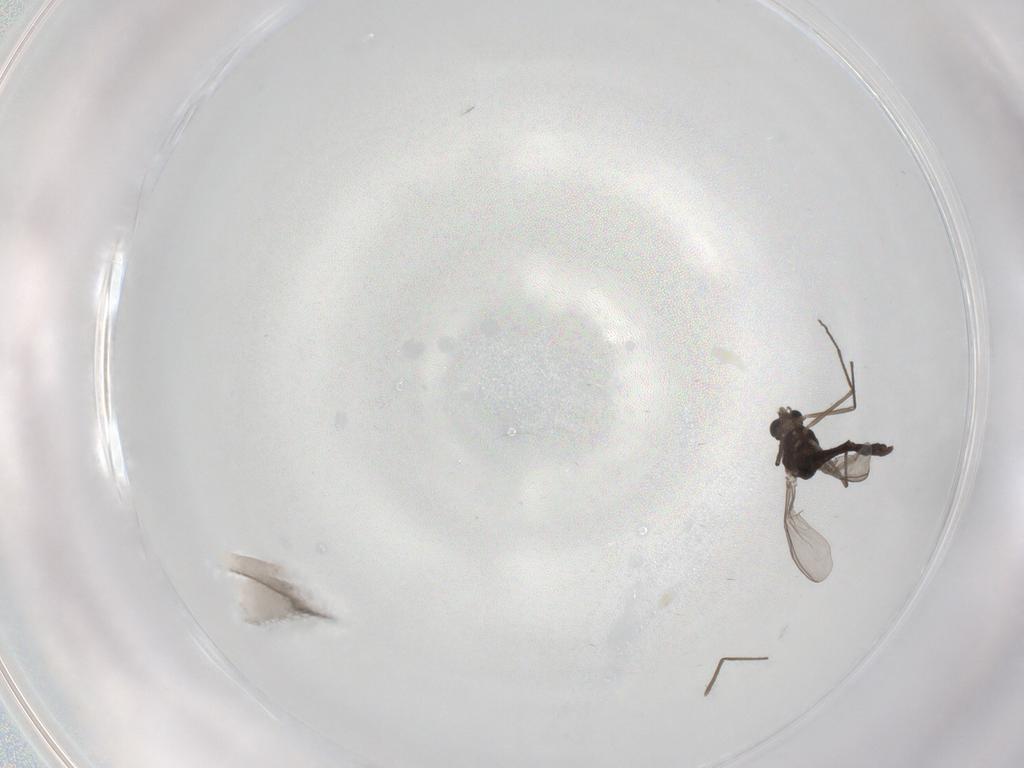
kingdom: Animalia
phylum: Arthropoda
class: Insecta
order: Diptera
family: Chironomidae
